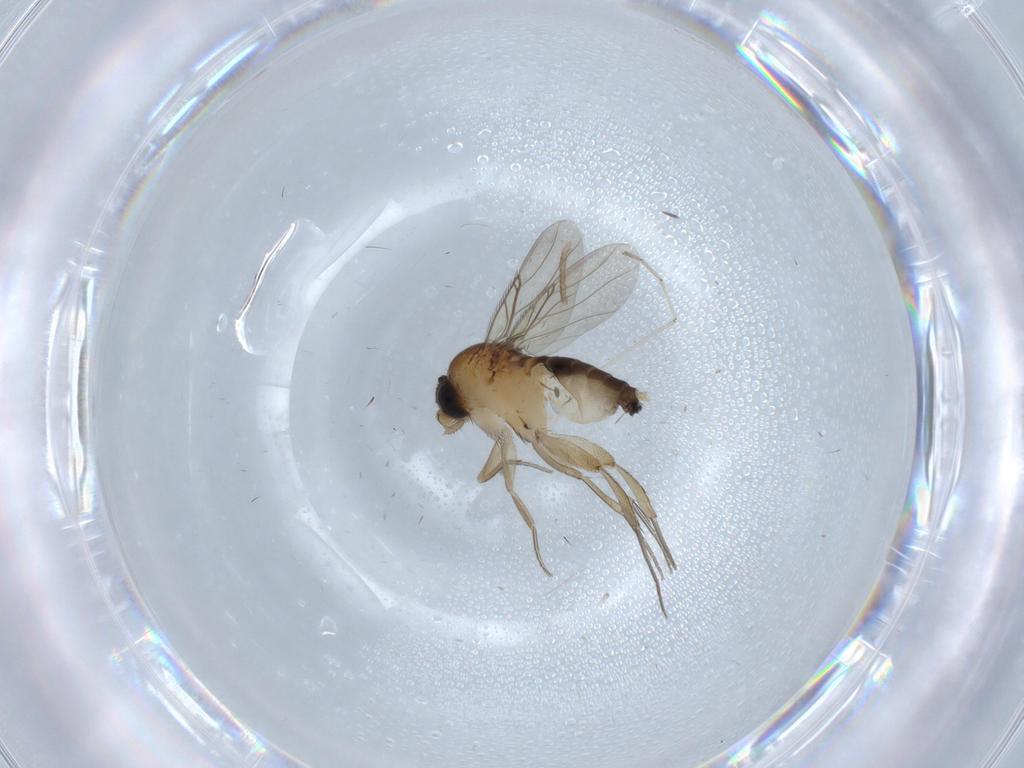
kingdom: Animalia
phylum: Arthropoda
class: Insecta
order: Diptera
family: Phoridae
